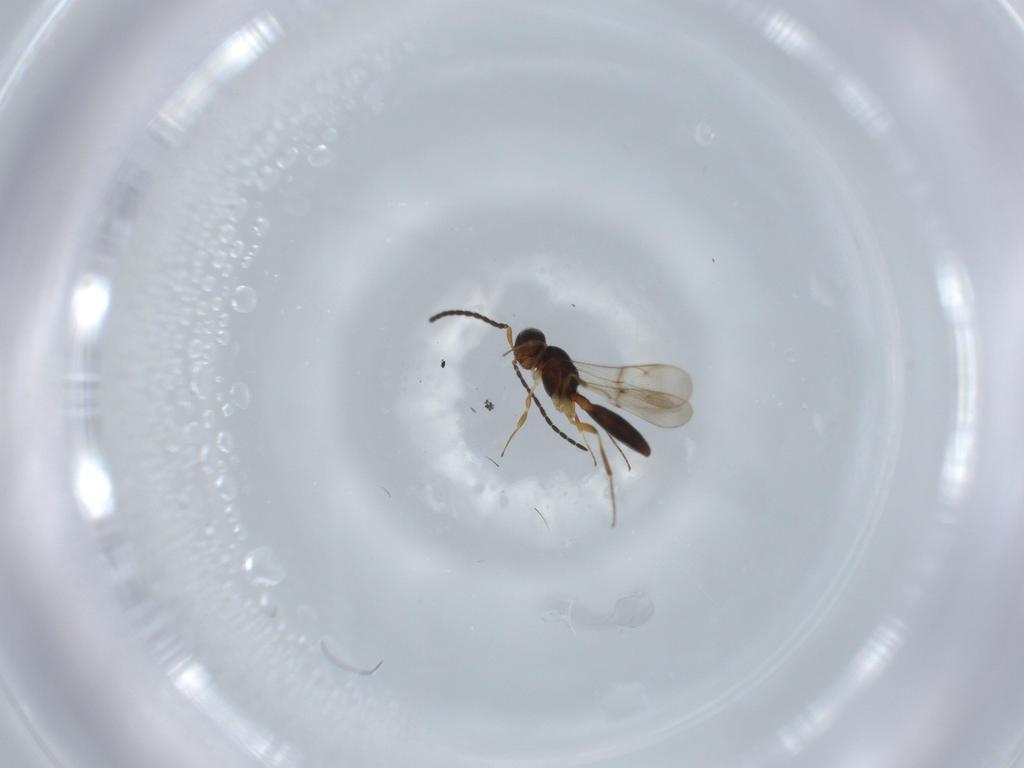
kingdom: Animalia
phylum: Arthropoda
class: Insecta
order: Hymenoptera
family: Scelionidae
